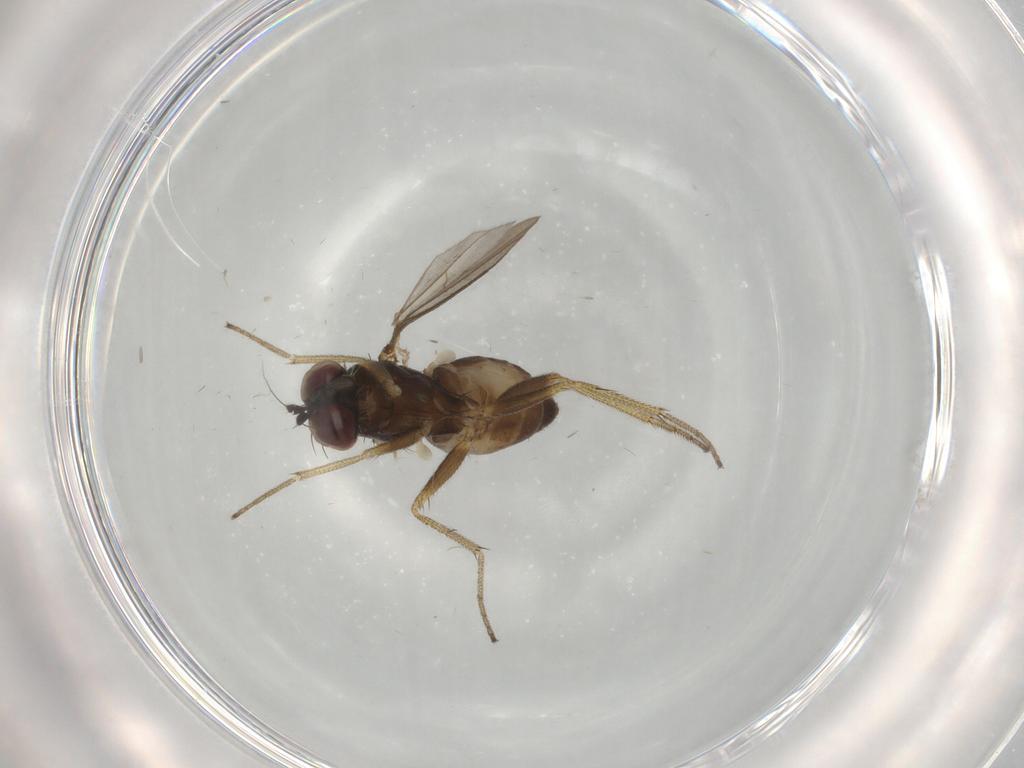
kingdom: Animalia
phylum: Arthropoda
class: Insecta
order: Diptera
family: Dolichopodidae
